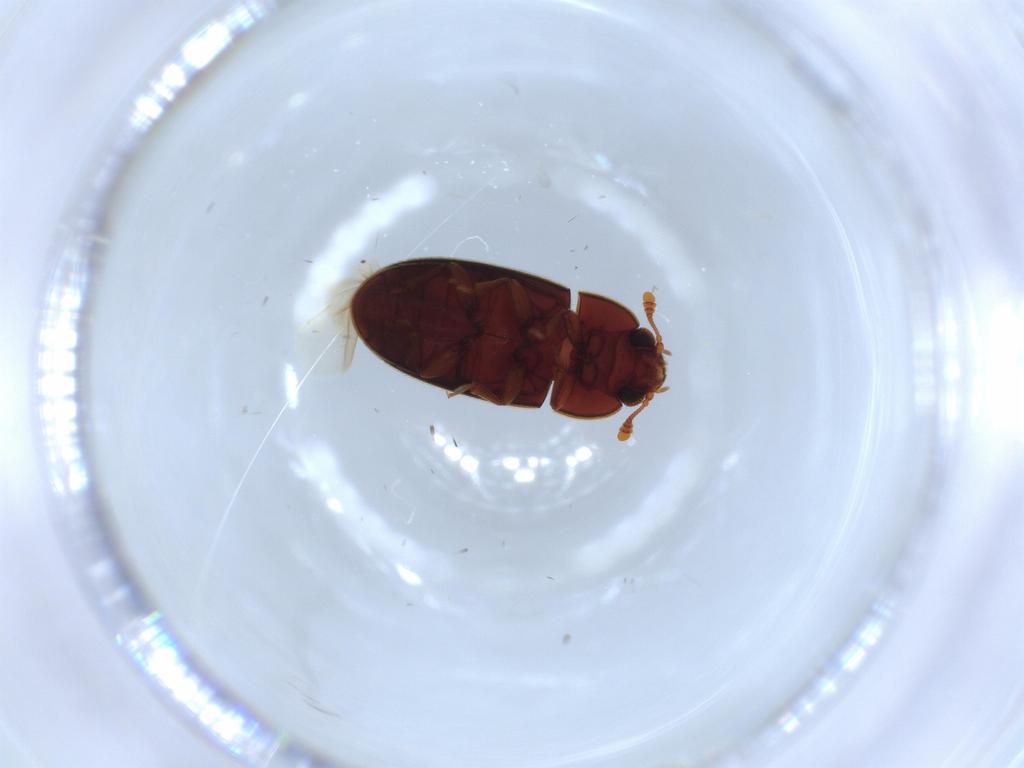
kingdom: Animalia
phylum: Arthropoda
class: Insecta
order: Coleoptera
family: Biphyllidae
